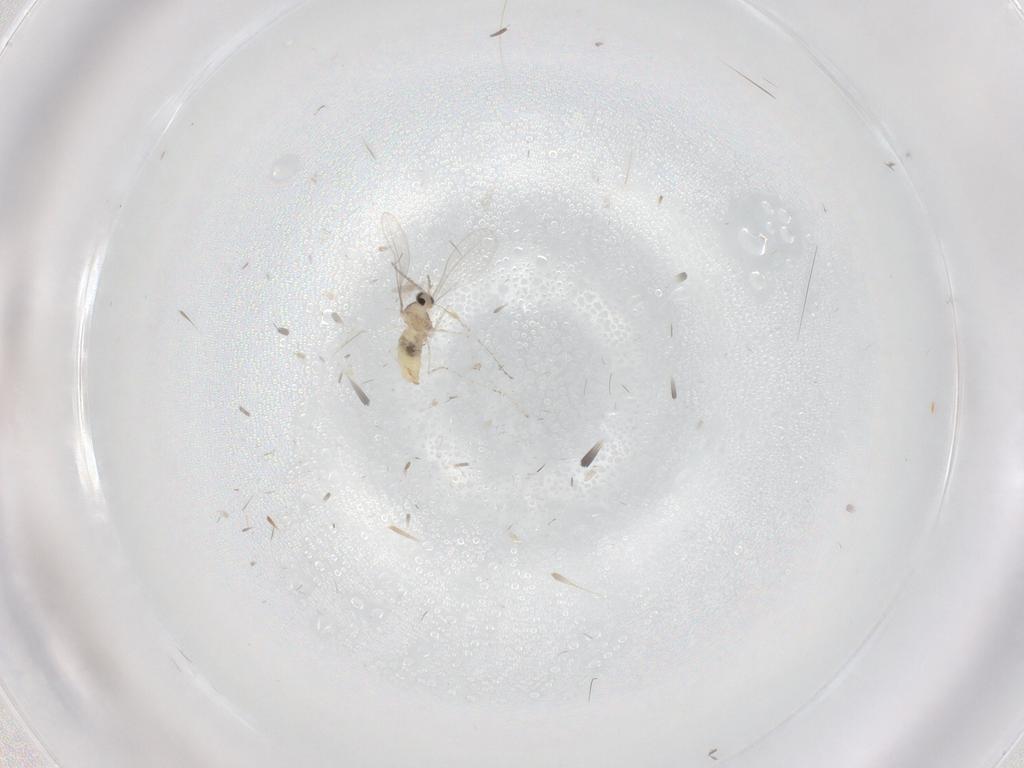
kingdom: Animalia
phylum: Arthropoda
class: Insecta
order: Diptera
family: Cecidomyiidae
